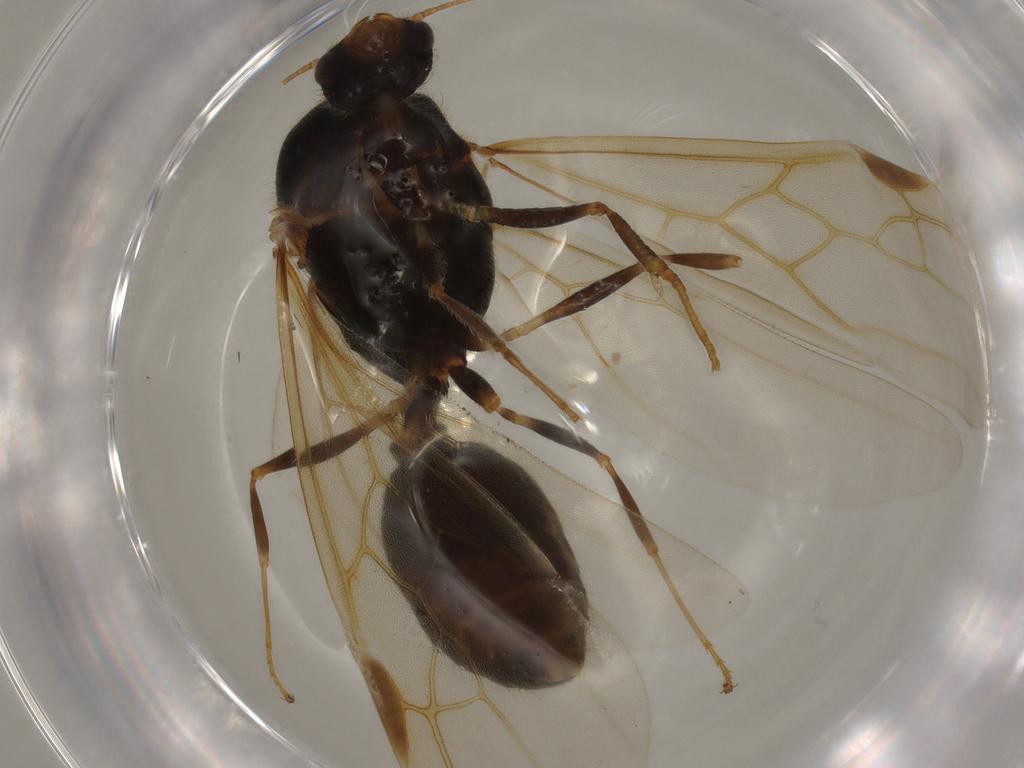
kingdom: Animalia
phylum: Arthropoda
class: Insecta
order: Hymenoptera
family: Formicidae
